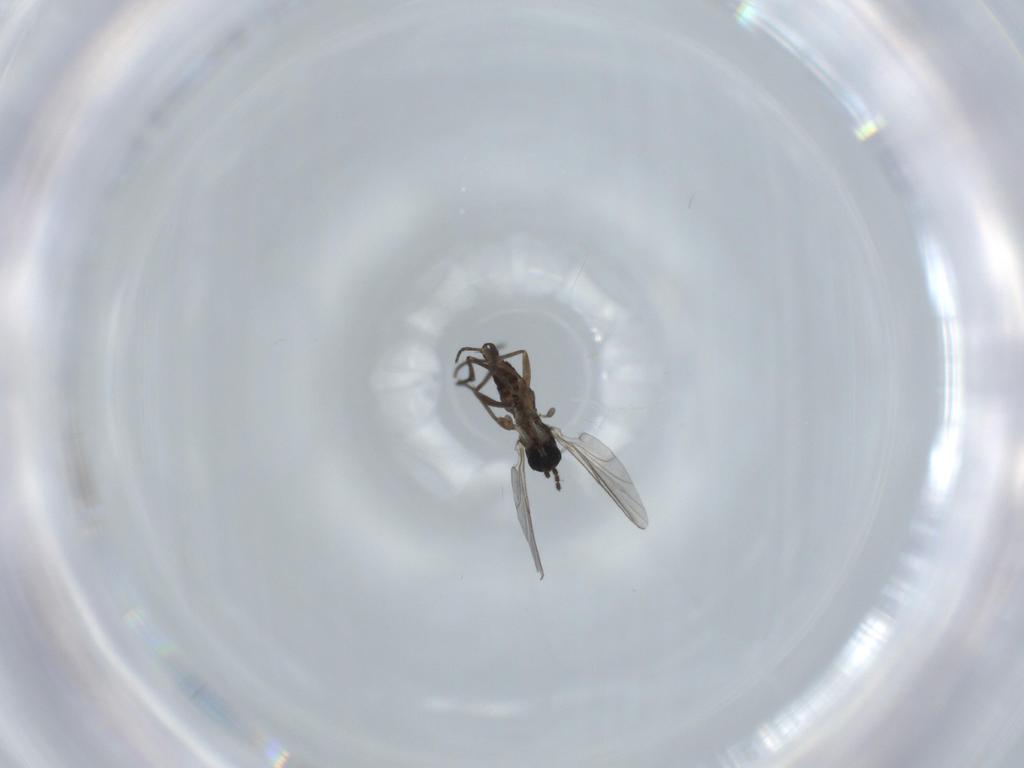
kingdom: Animalia
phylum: Arthropoda
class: Insecta
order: Diptera
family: Sciaridae
